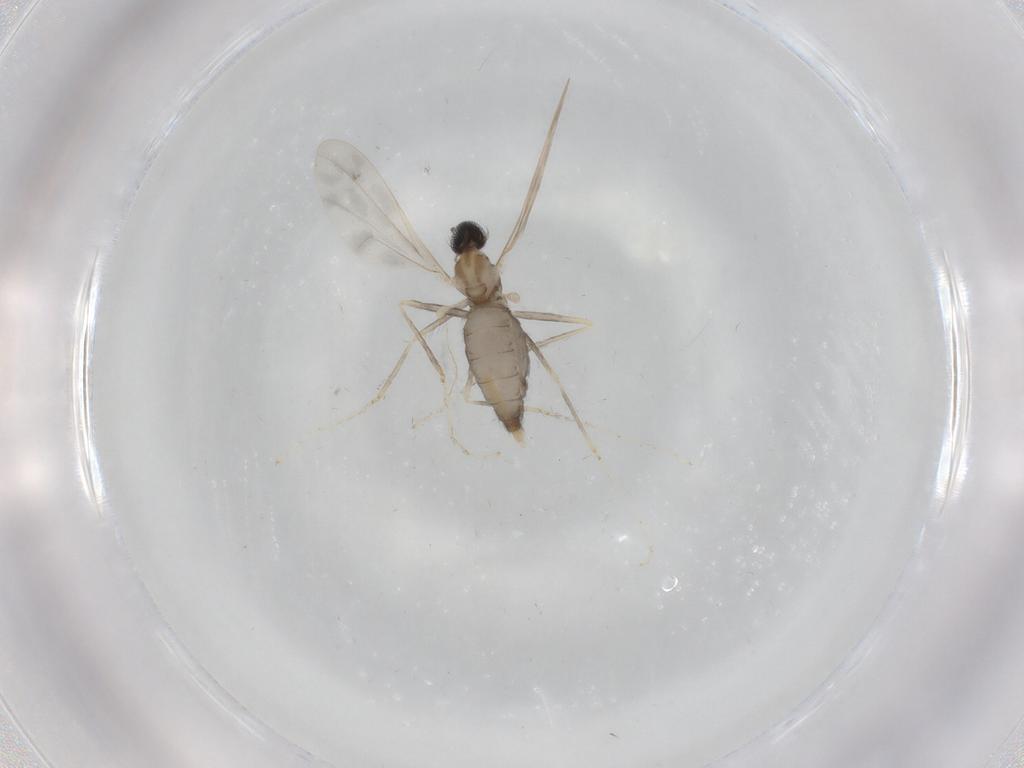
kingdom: Animalia
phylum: Arthropoda
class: Insecta
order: Diptera
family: Cecidomyiidae
